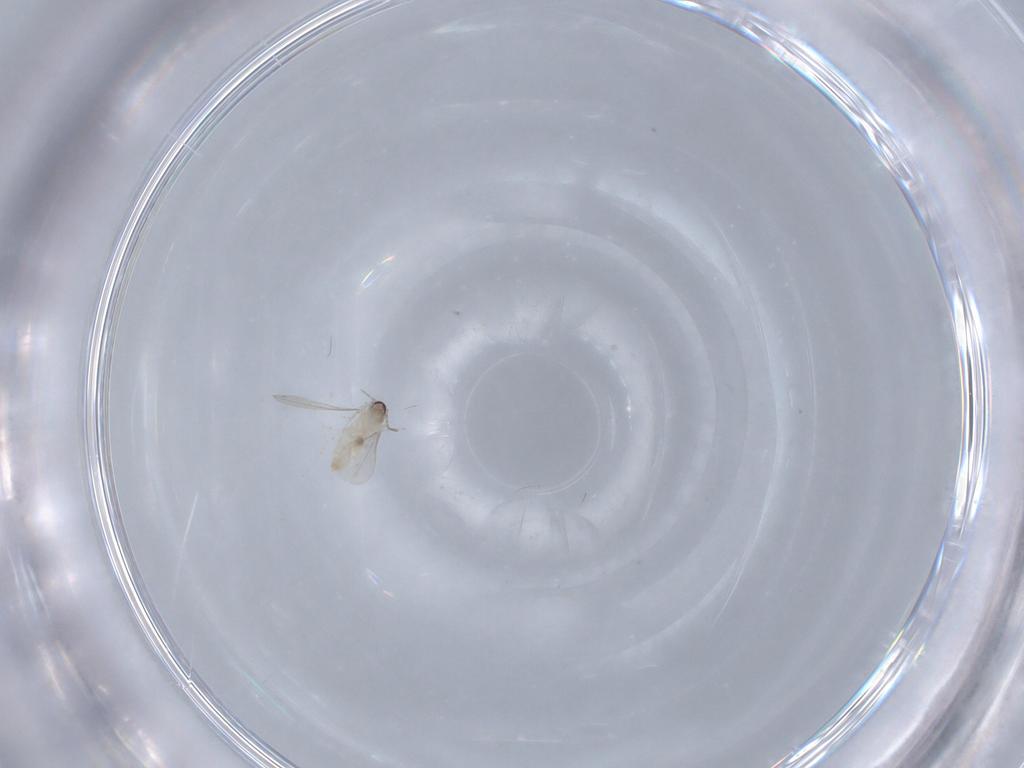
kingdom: Animalia
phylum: Arthropoda
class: Insecta
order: Diptera
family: Cecidomyiidae
